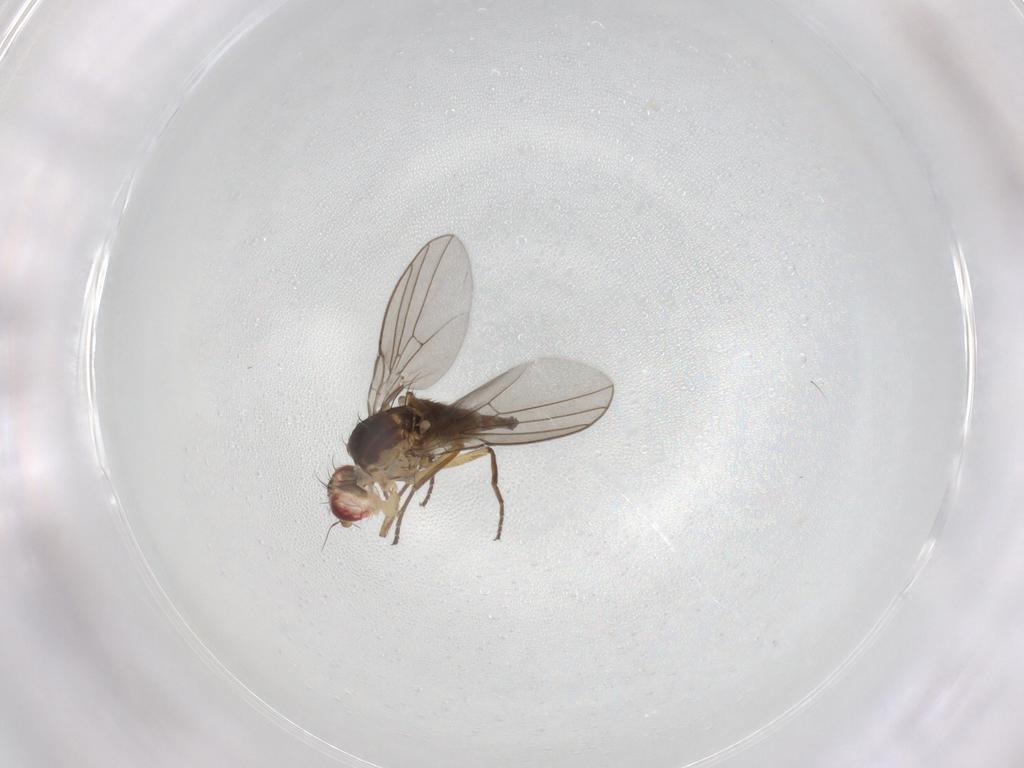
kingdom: Animalia
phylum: Arthropoda
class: Insecta
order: Diptera
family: Agromyzidae
